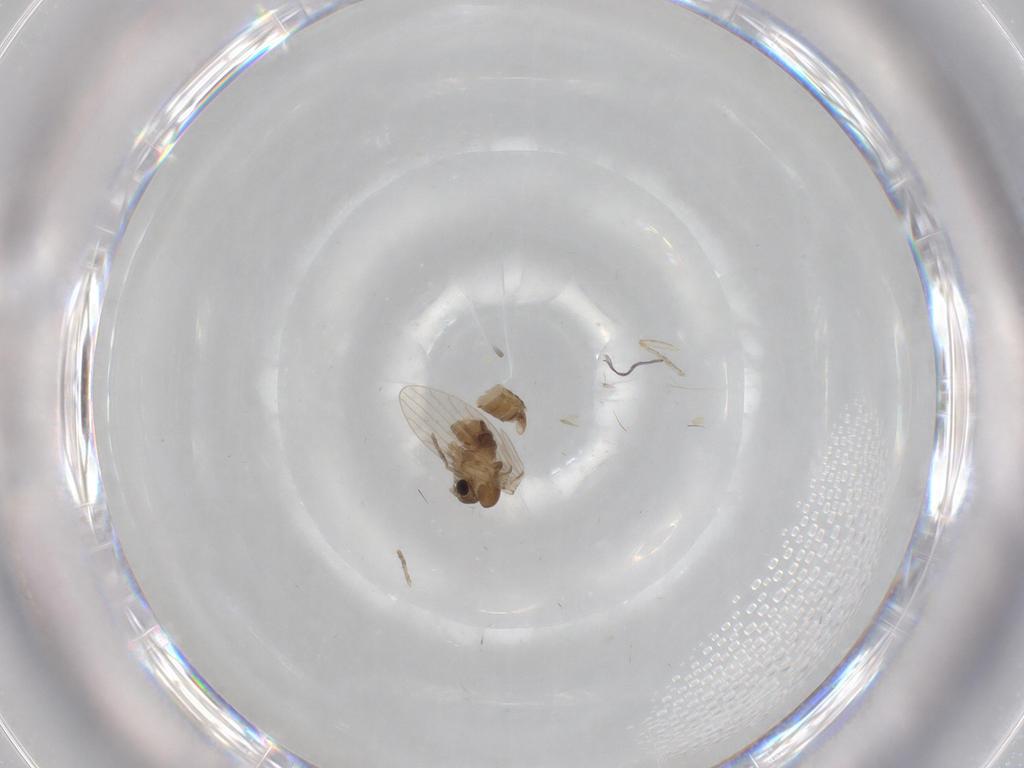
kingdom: Animalia
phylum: Arthropoda
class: Insecta
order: Diptera
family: Psychodidae
